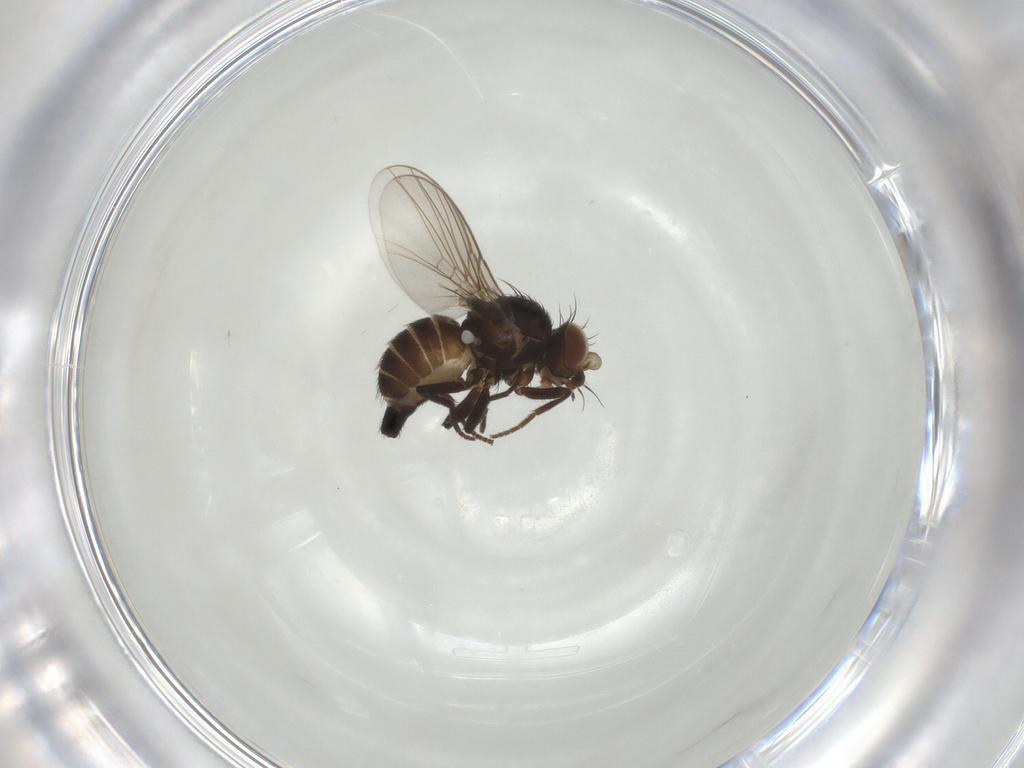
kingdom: Animalia
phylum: Arthropoda
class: Insecta
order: Diptera
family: Agromyzidae
